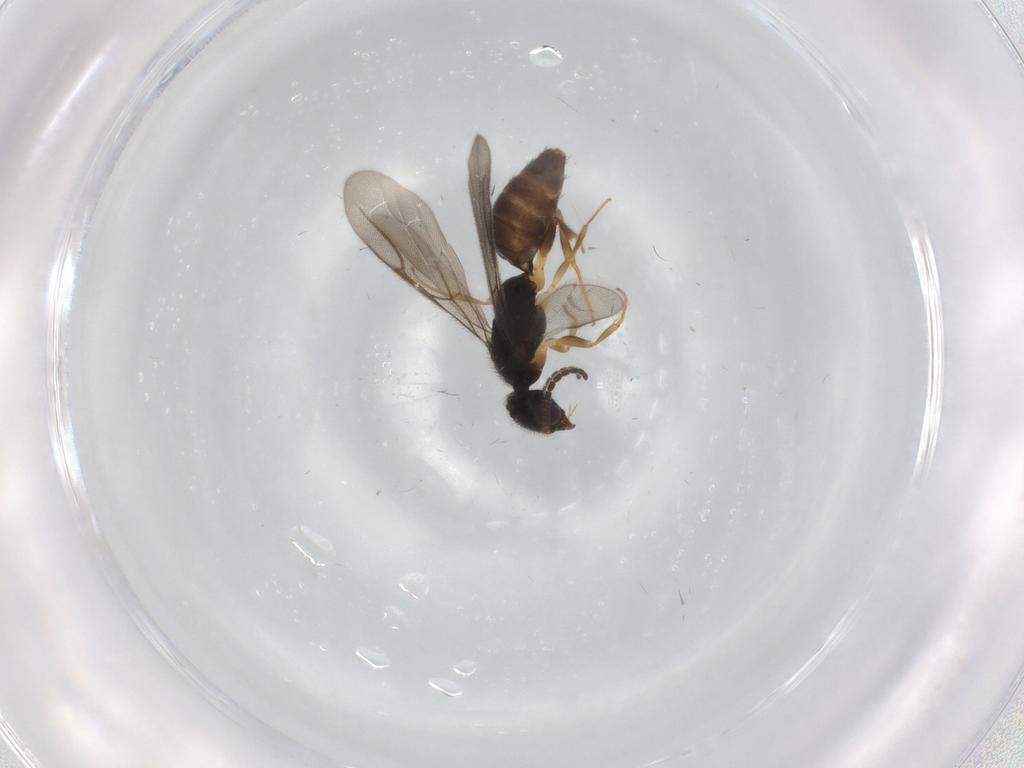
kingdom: Animalia
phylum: Arthropoda
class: Insecta
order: Hymenoptera
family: Bethylidae
